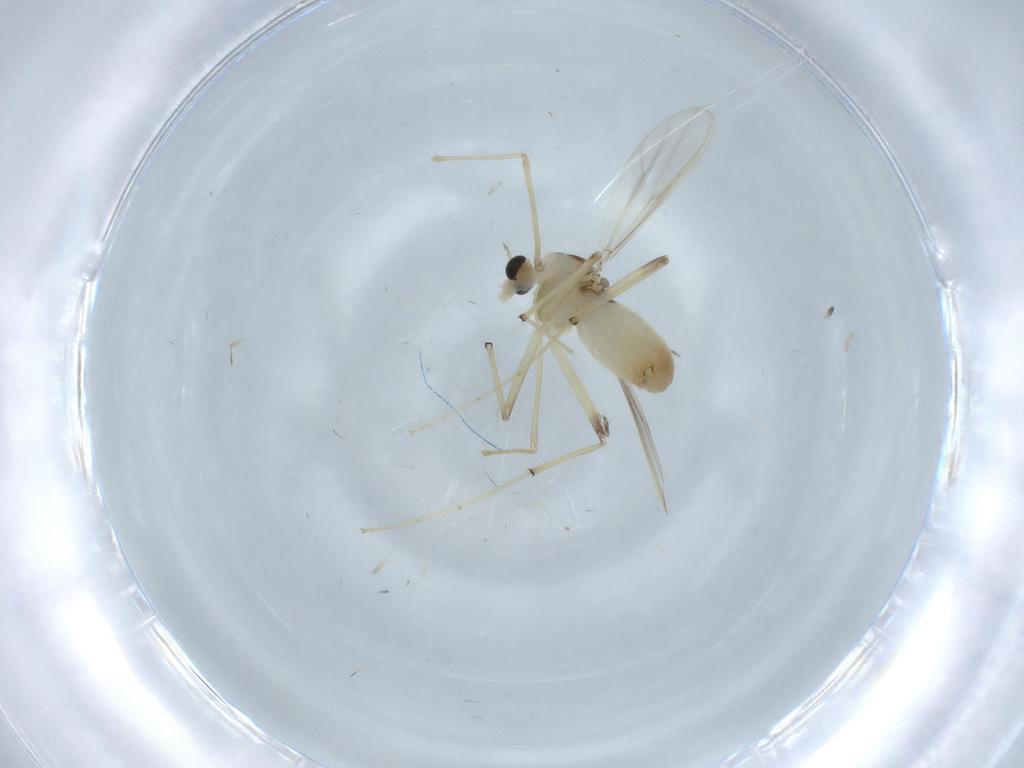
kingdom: Animalia
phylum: Arthropoda
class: Insecta
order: Diptera
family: Chironomidae
